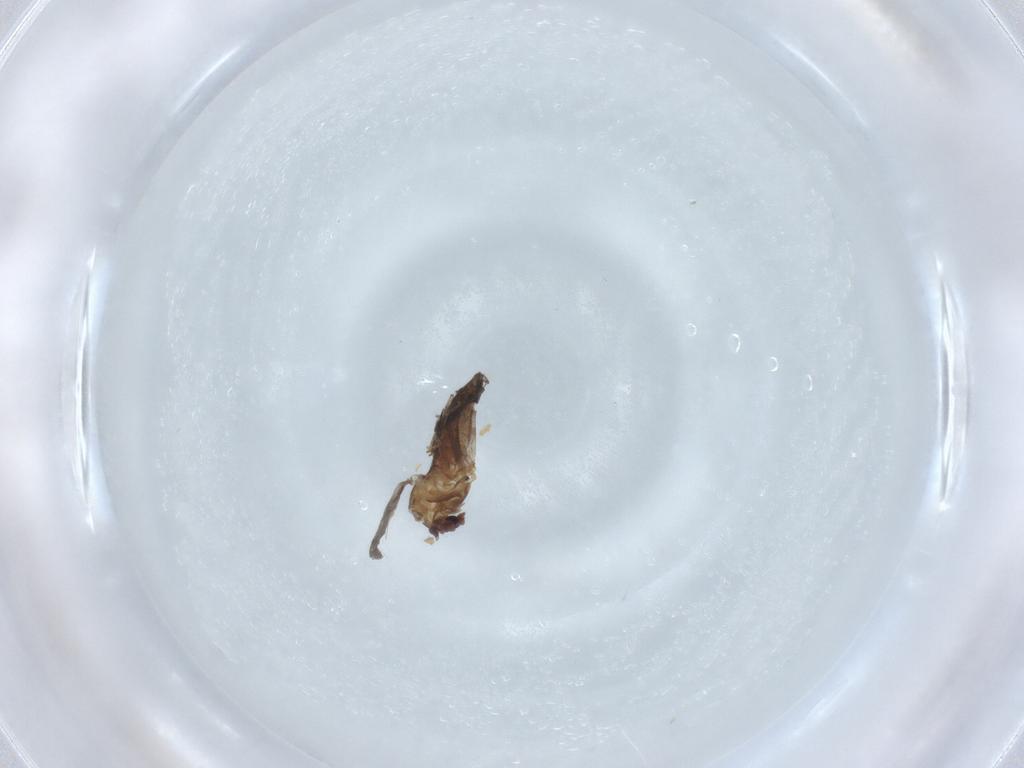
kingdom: Animalia
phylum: Arthropoda
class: Insecta
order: Diptera
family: Chironomidae
